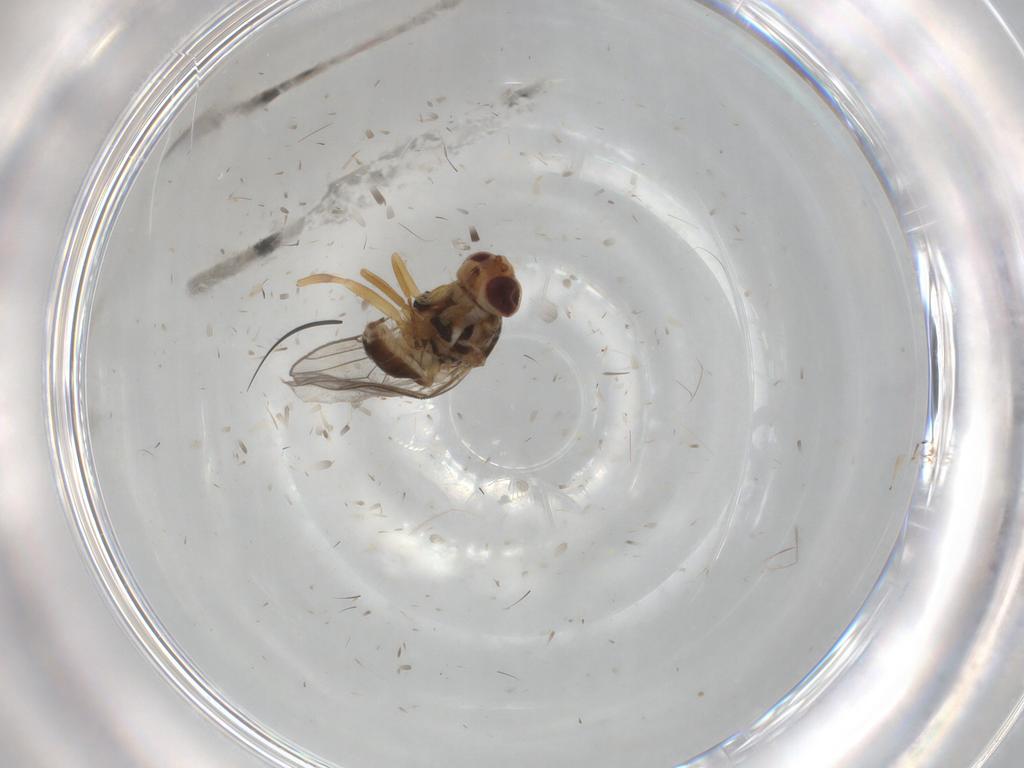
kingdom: Animalia
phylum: Arthropoda
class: Insecta
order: Diptera
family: Chloropidae
